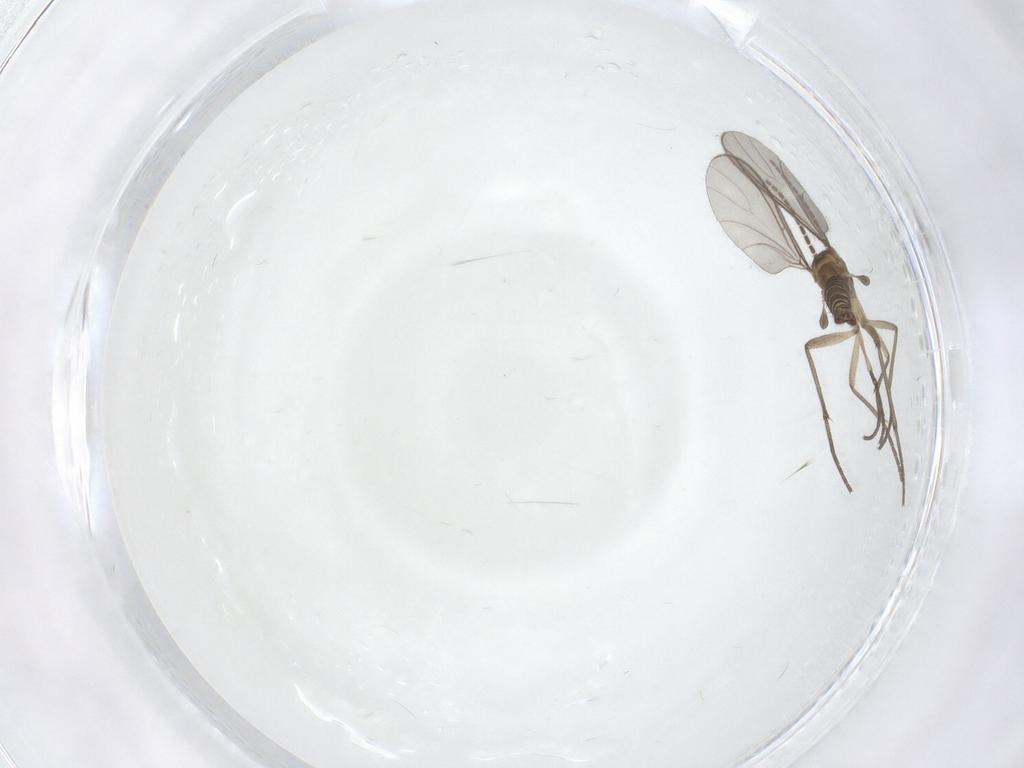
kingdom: Animalia
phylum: Arthropoda
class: Insecta
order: Diptera
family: Sciaridae
